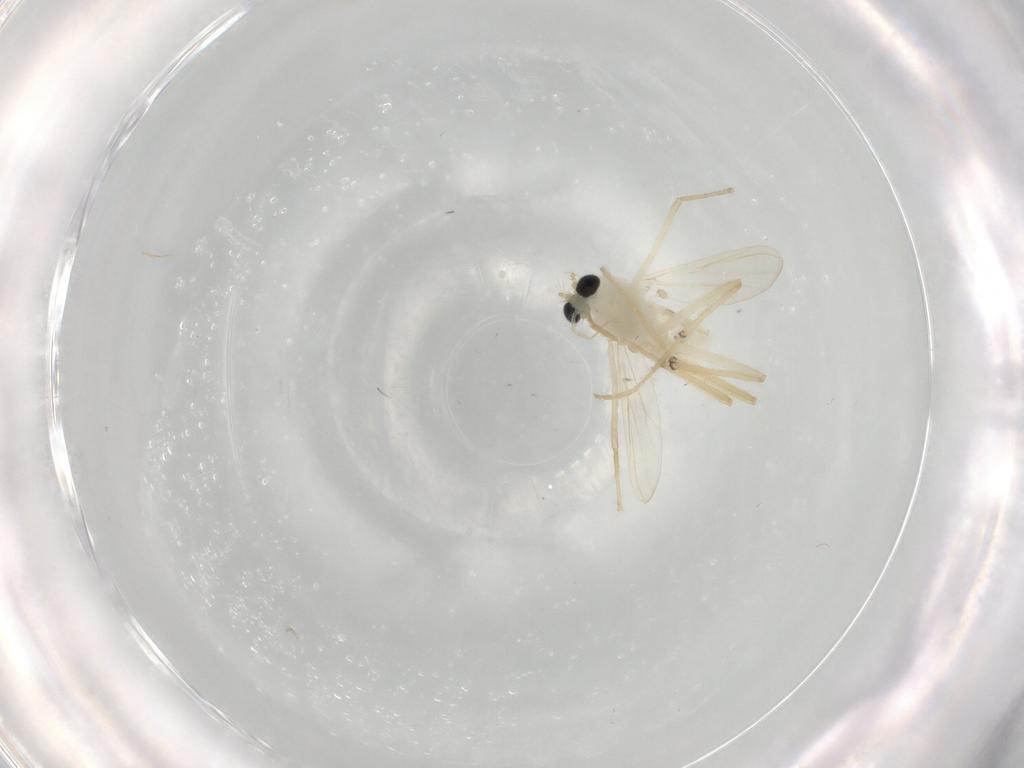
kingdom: Animalia
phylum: Arthropoda
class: Insecta
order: Diptera
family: Chironomidae
